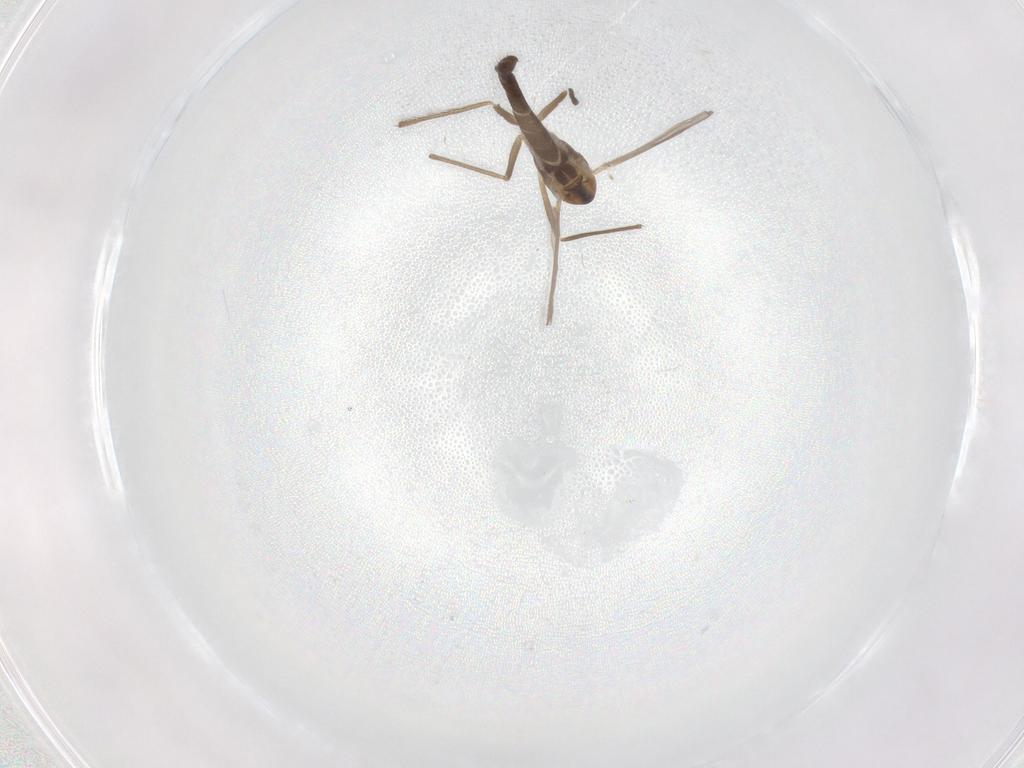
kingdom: Animalia
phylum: Arthropoda
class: Insecta
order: Diptera
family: Chironomidae
